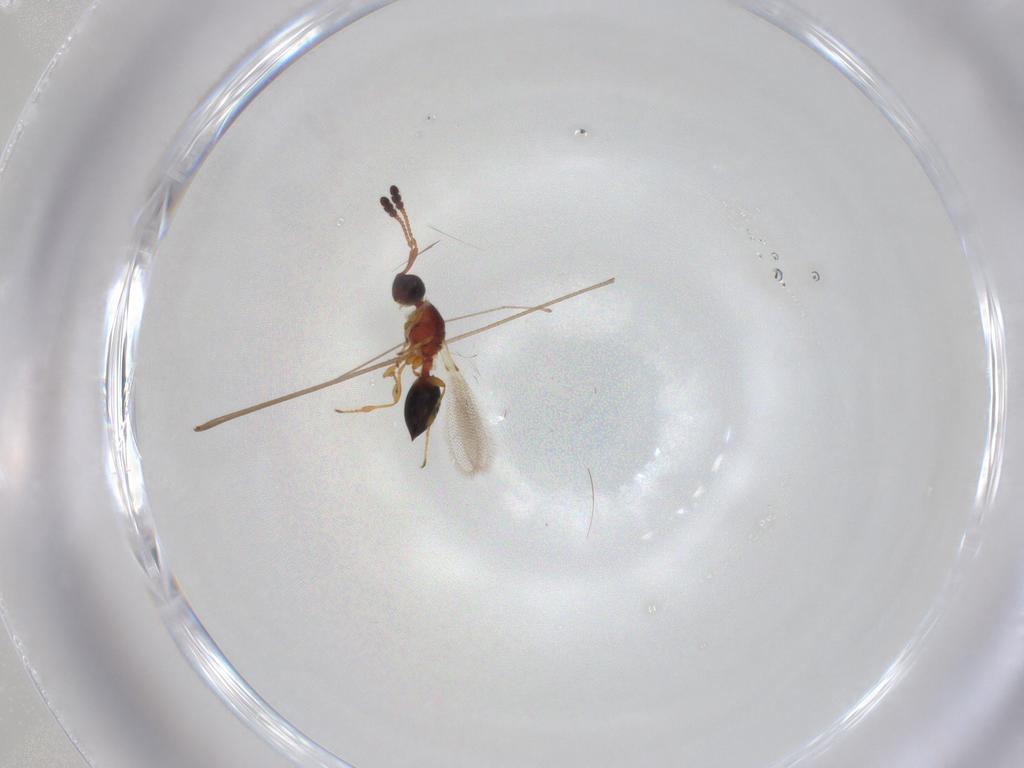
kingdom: Animalia
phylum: Arthropoda
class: Insecta
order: Hymenoptera
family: Diapriidae
